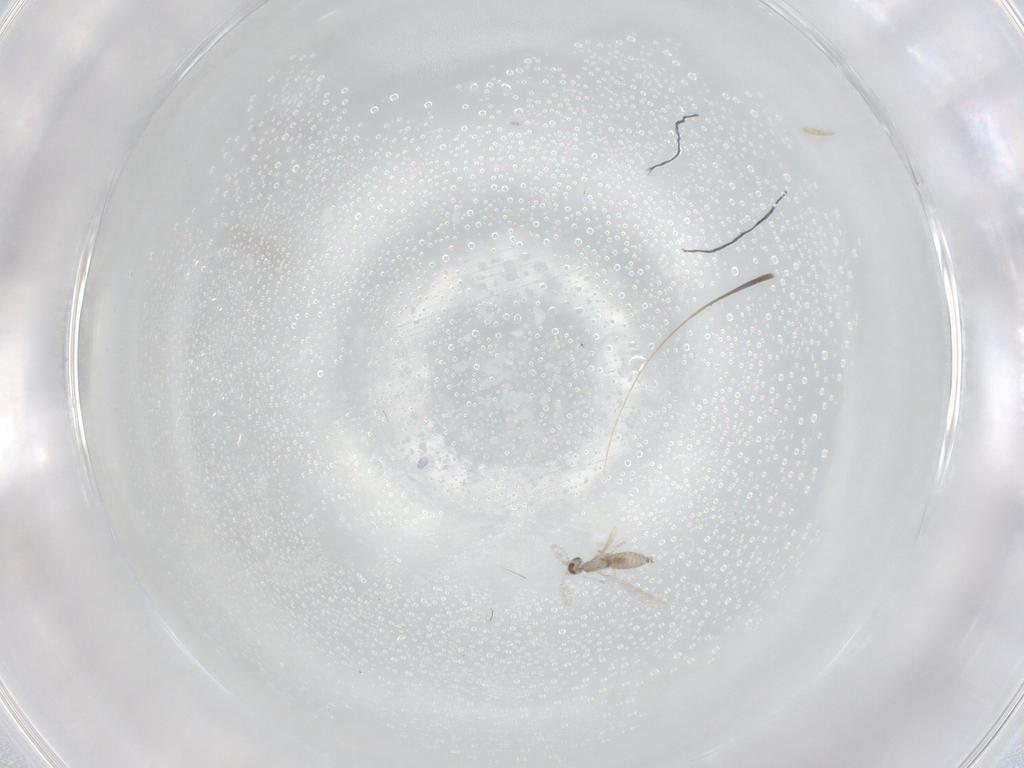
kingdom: Animalia
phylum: Arthropoda
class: Insecta
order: Diptera
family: Cecidomyiidae
